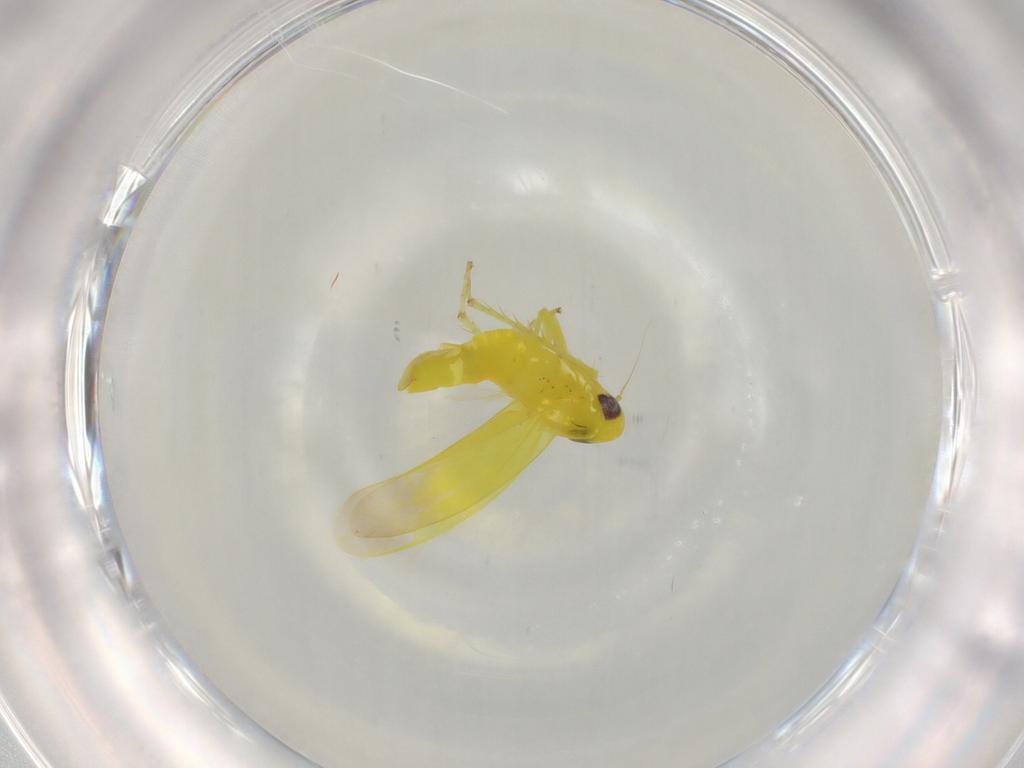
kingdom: Animalia
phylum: Arthropoda
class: Insecta
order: Hemiptera
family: Cicadellidae
